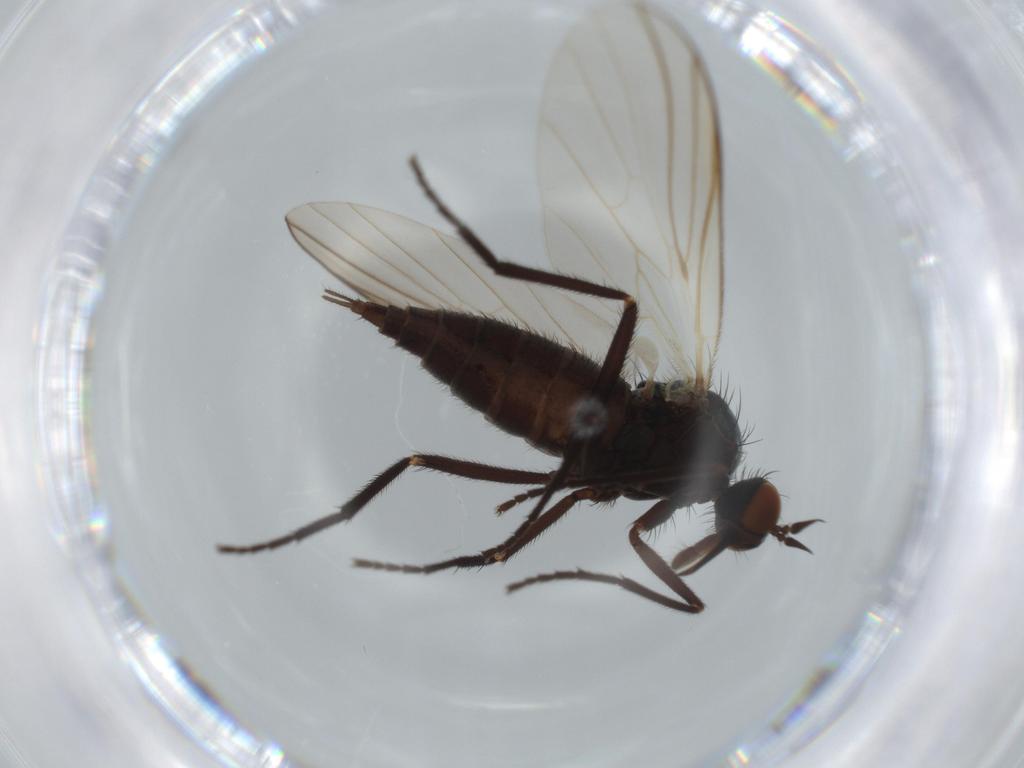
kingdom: Animalia
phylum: Arthropoda
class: Insecta
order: Diptera
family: Empididae
